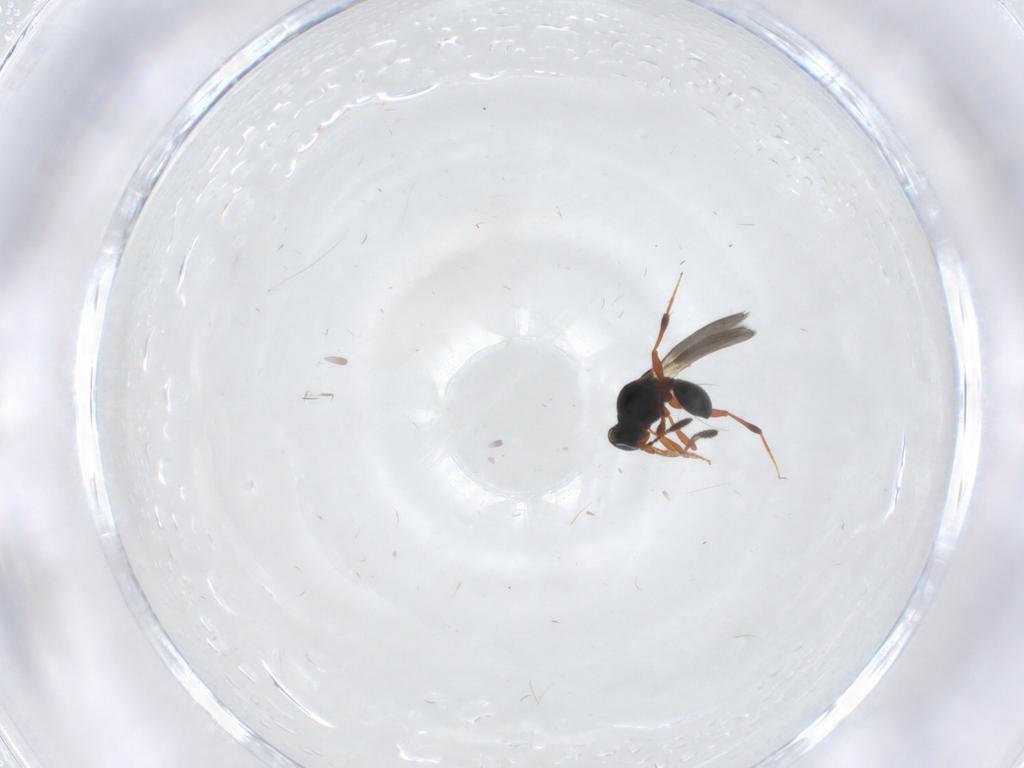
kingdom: Animalia
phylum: Arthropoda
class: Insecta
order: Hymenoptera
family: Platygastridae
